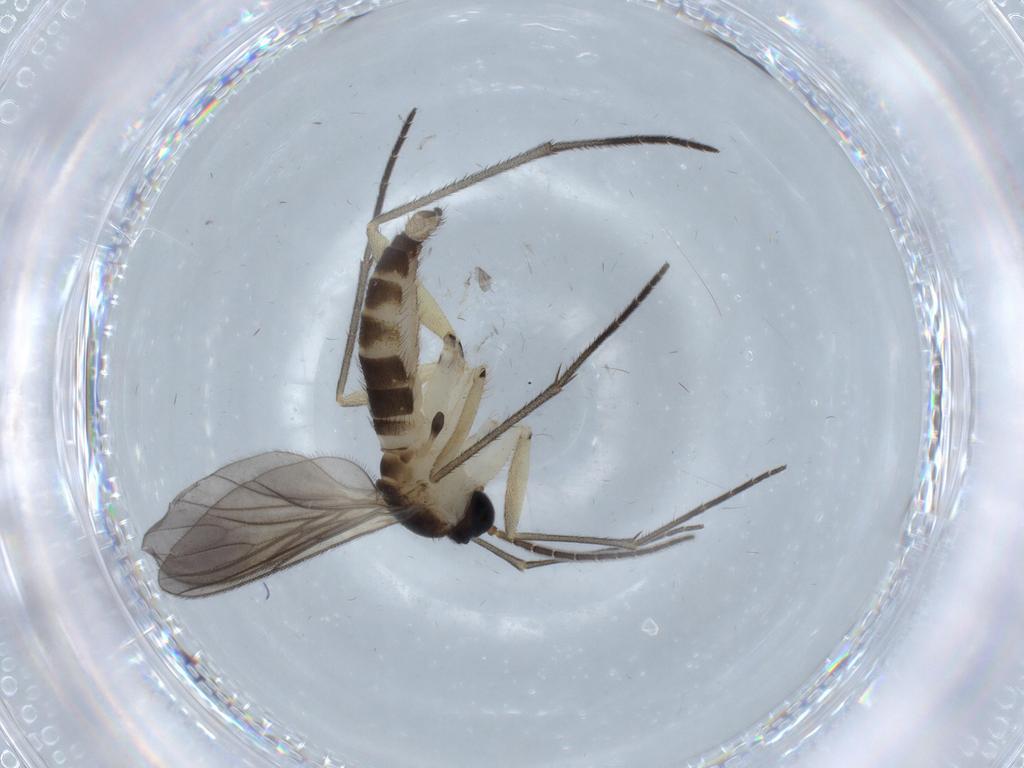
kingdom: Animalia
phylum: Arthropoda
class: Insecta
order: Diptera
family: Sciaridae
